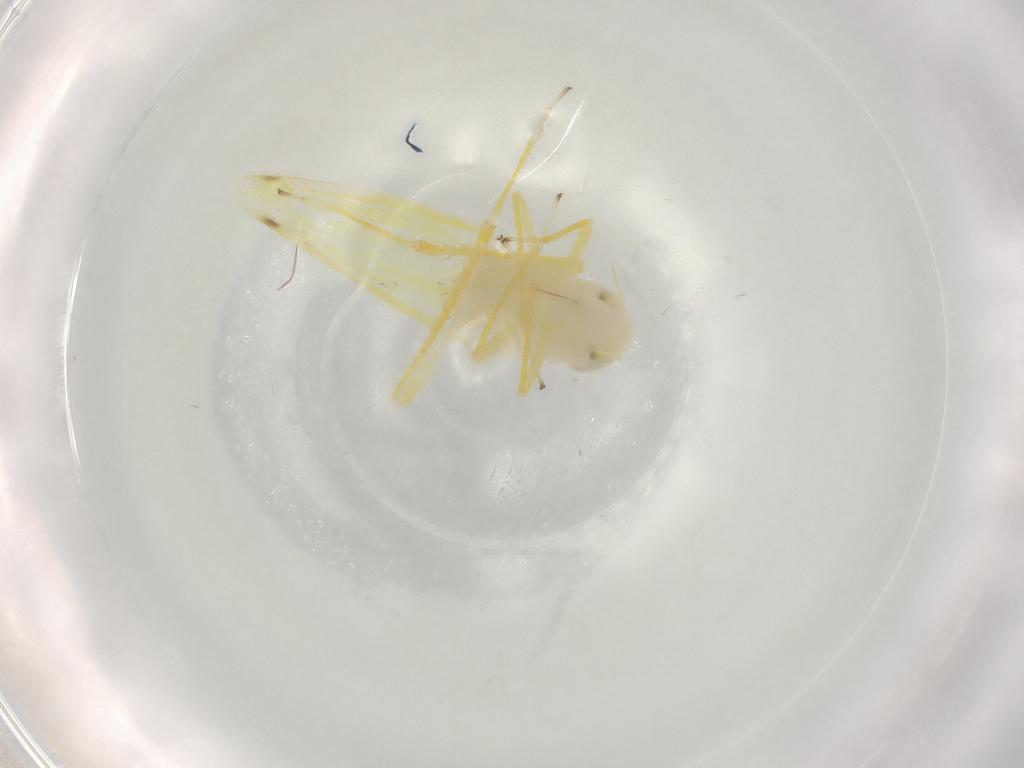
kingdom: Animalia
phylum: Arthropoda
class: Insecta
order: Hemiptera
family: Cicadellidae
